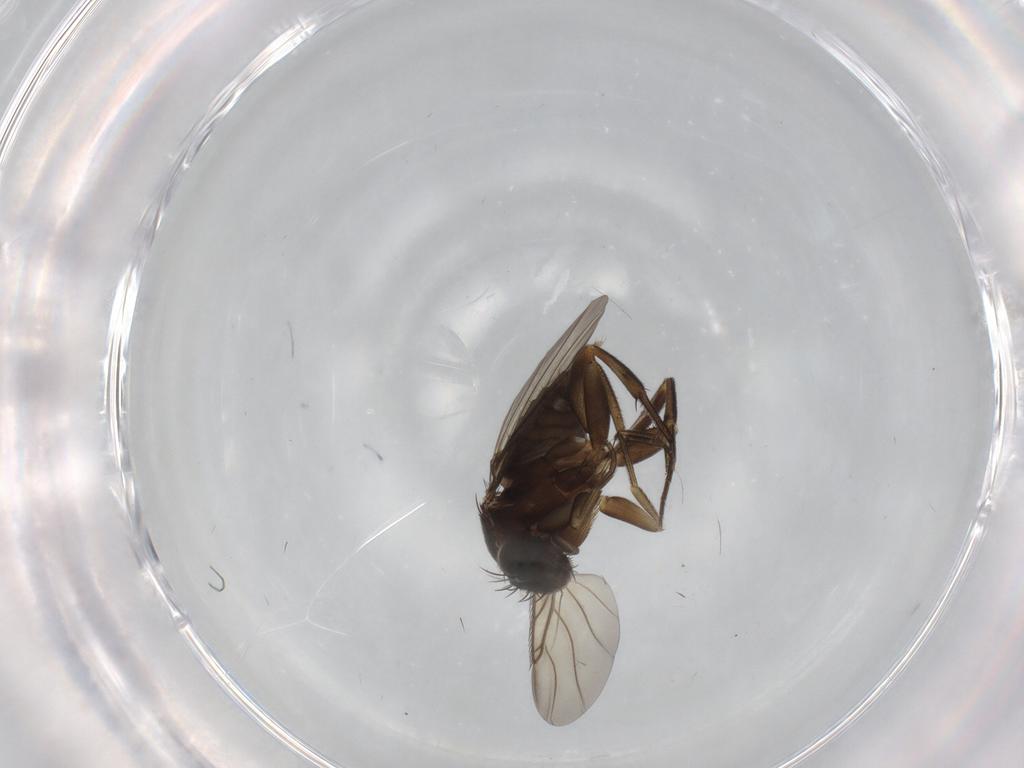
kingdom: Animalia
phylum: Arthropoda
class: Insecta
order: Diptera
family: Phoridae
